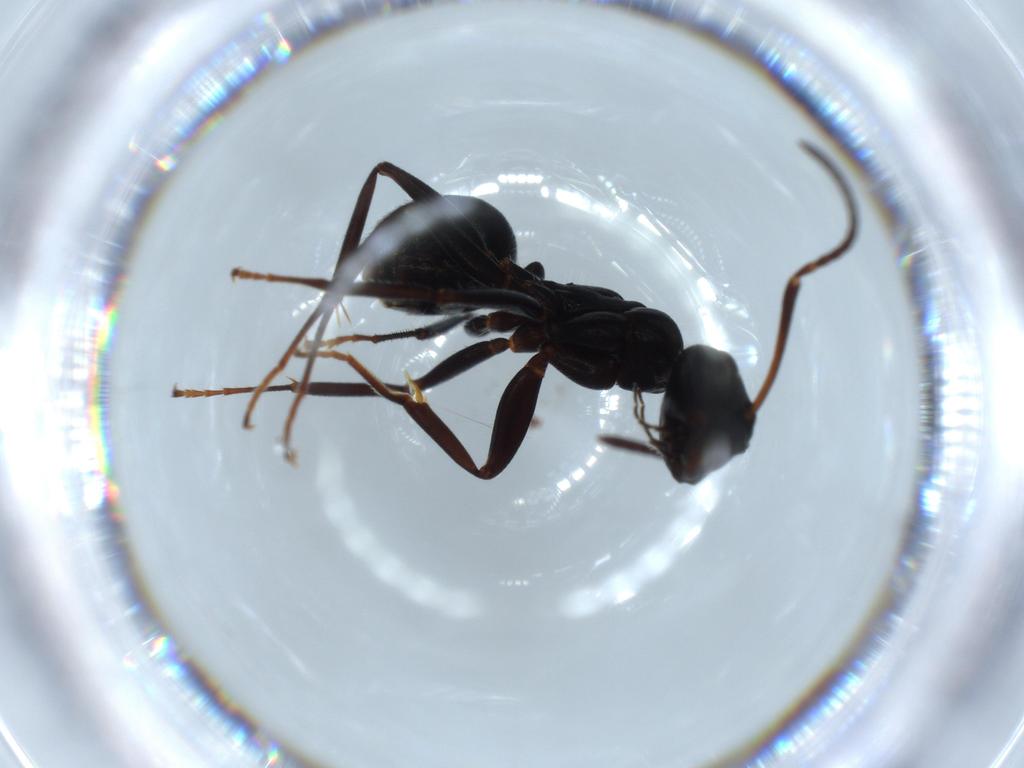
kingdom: Animalia
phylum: Arthropoda
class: Insecta
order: Hymenoptera
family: Formicidae
